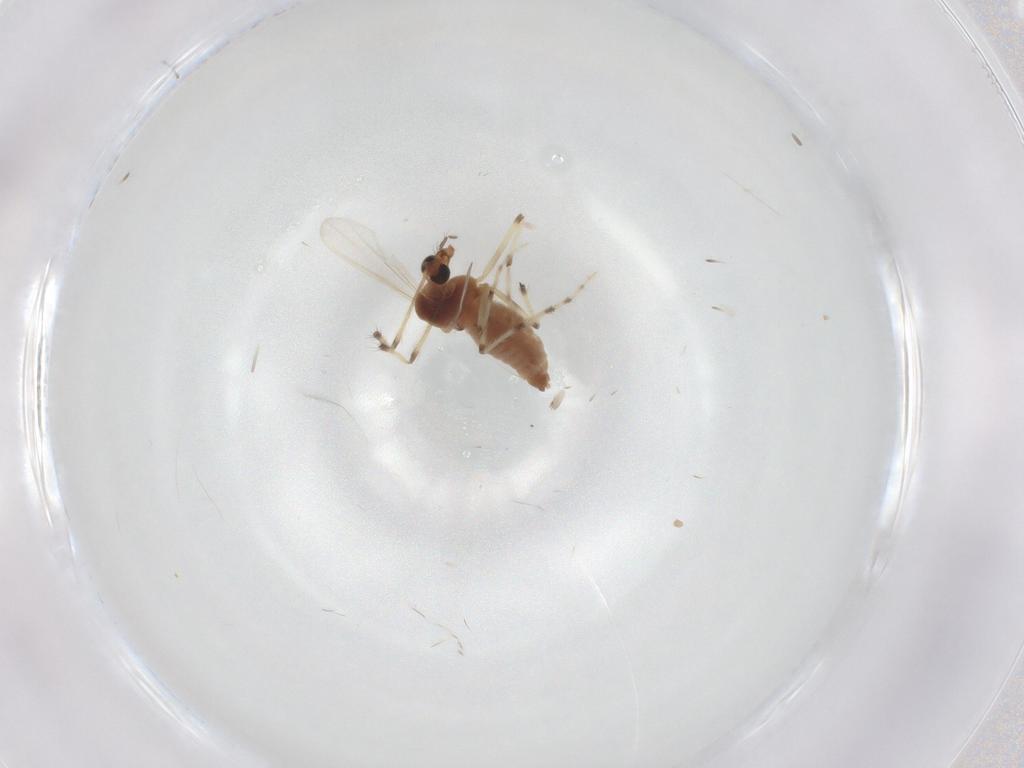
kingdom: Animalia
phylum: Arthropoda
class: Insecta
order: Diptera
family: Chironomidae
